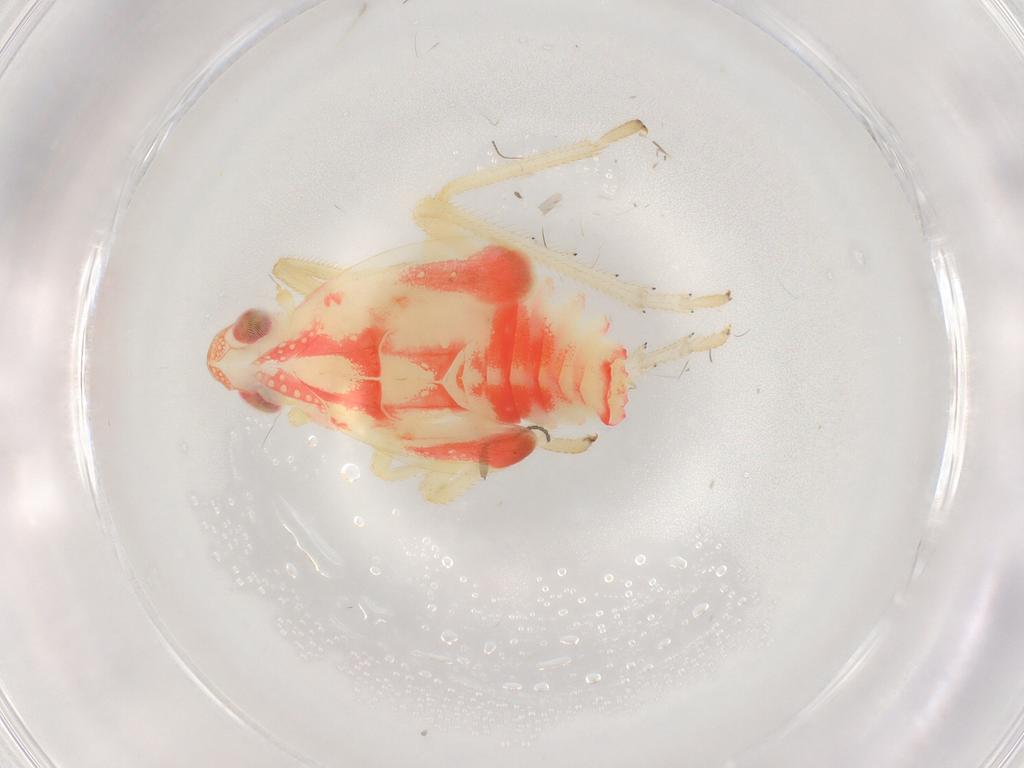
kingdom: Animalia
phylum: Arthropoda
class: Insecta
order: Hemiptera
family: Tropiduchidae
